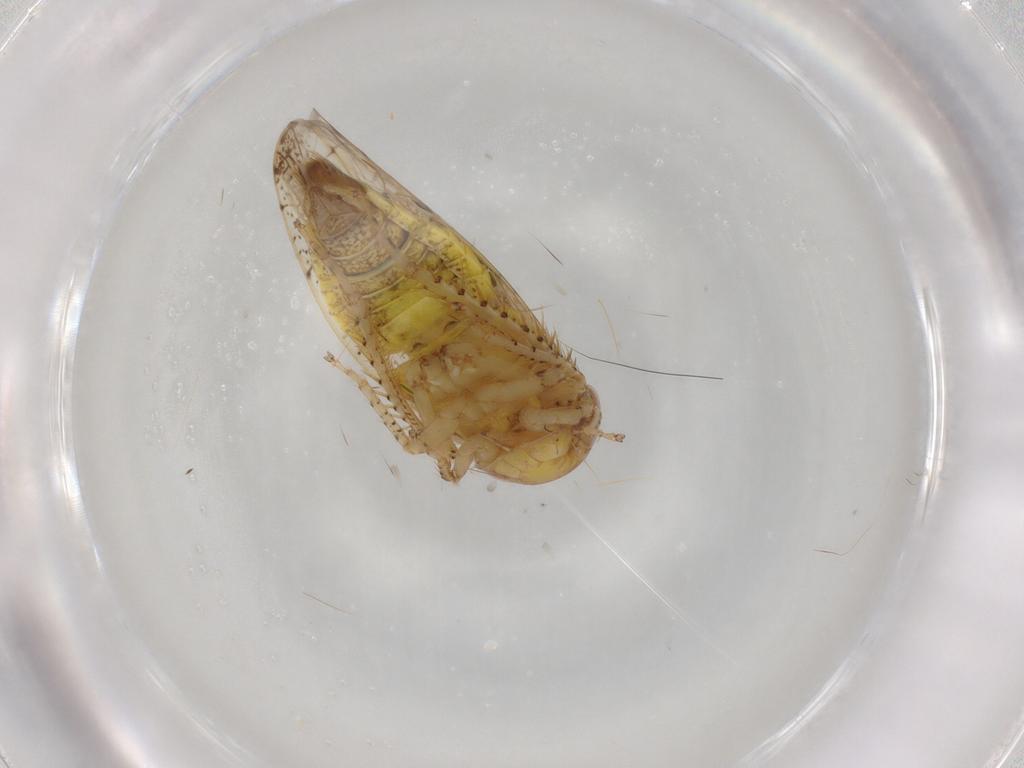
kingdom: Animalia
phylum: Arthropoda
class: Insecta
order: Hemiptera
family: Cicadellidae
